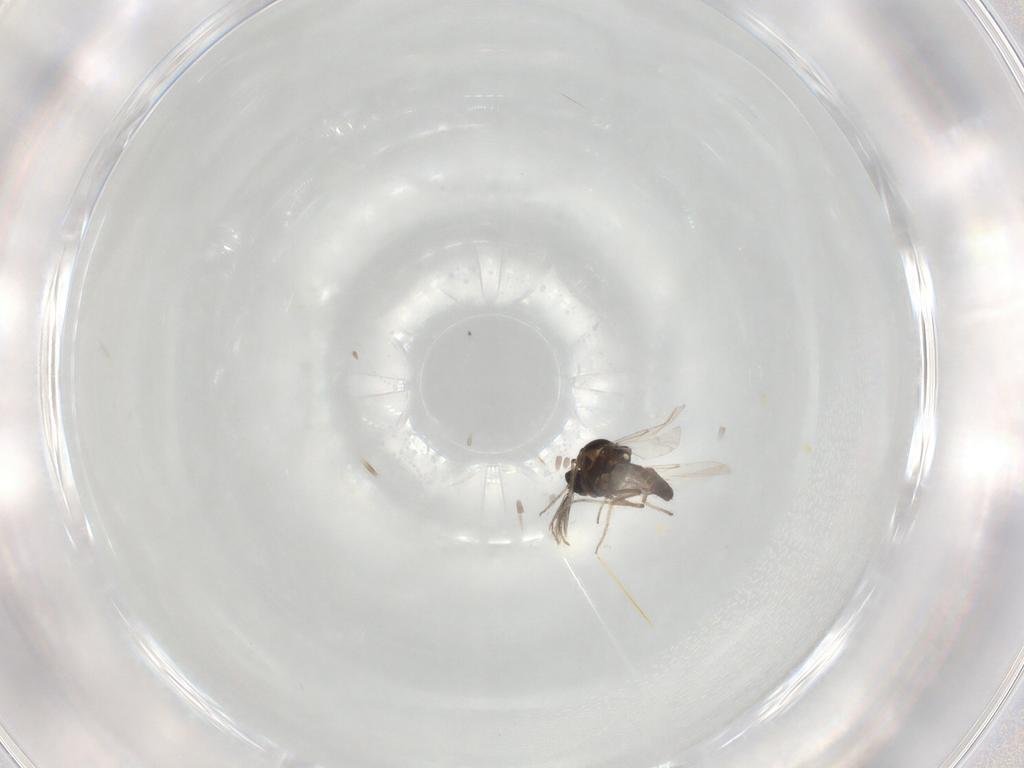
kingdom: Animalia
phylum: Arthropoda
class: Insecta
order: Diptera
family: Ceratopogonidae
